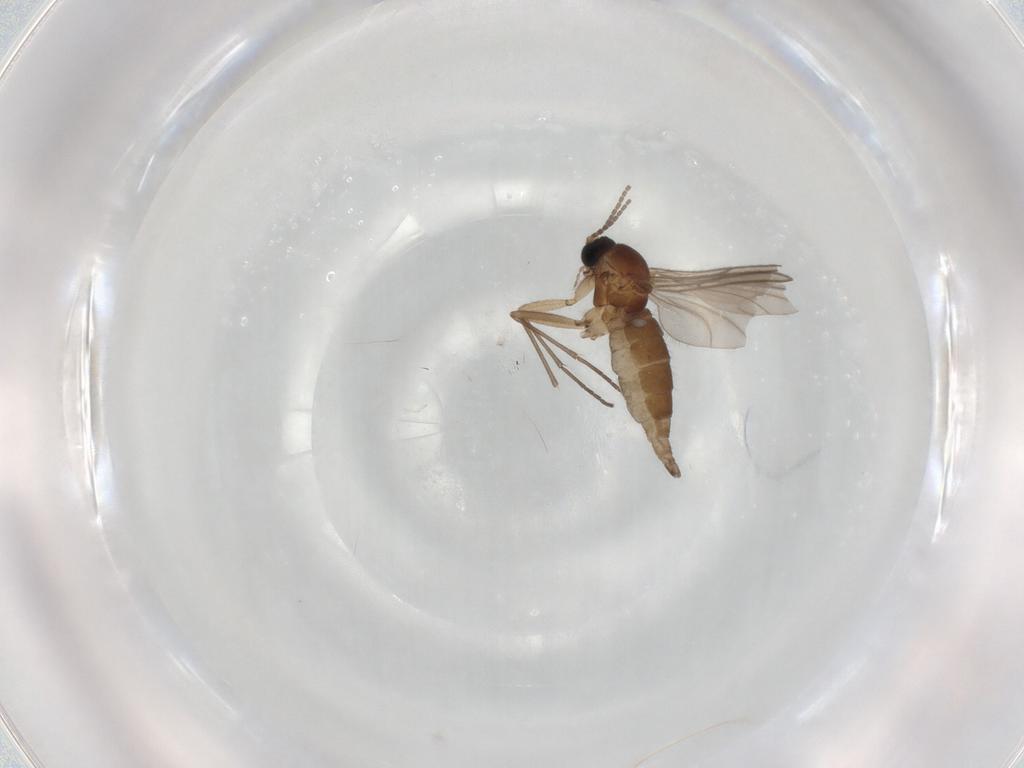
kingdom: Animalia
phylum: Arthropoda
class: Insecta
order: Diptera
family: Sciaridae
